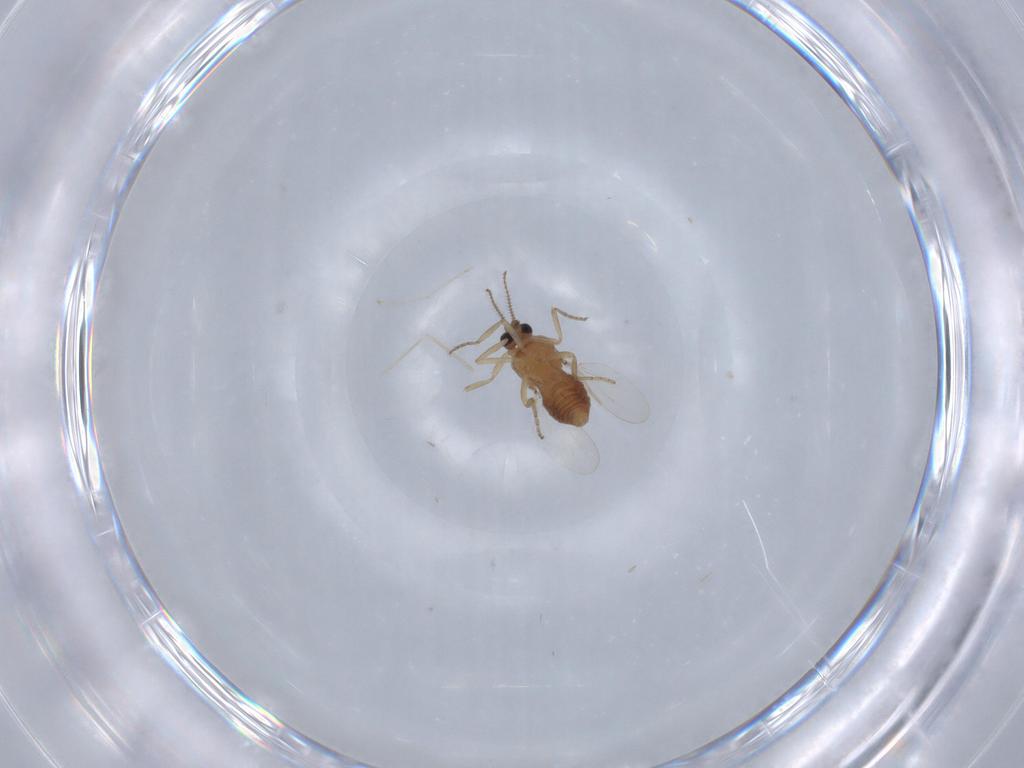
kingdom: Animalia
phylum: Arthropoda
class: Insecta
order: Diptera
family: Ceratopogonidae
